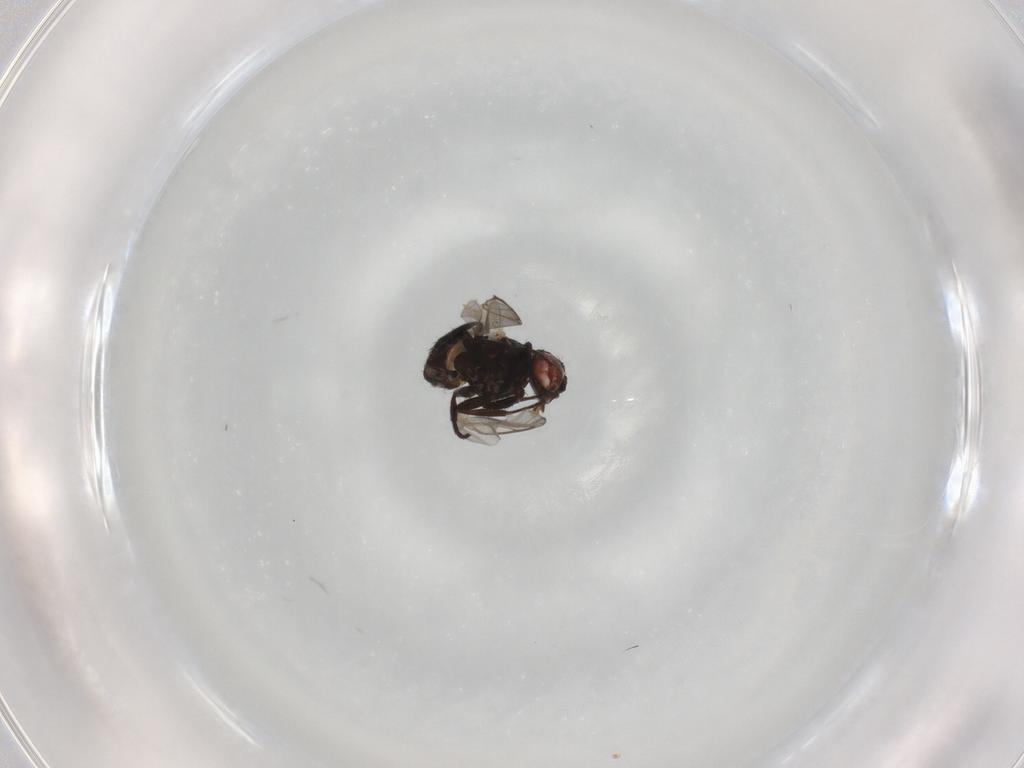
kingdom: Animalia
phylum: Arthropoda
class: Insecta
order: Diptera
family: Agromyzidae
